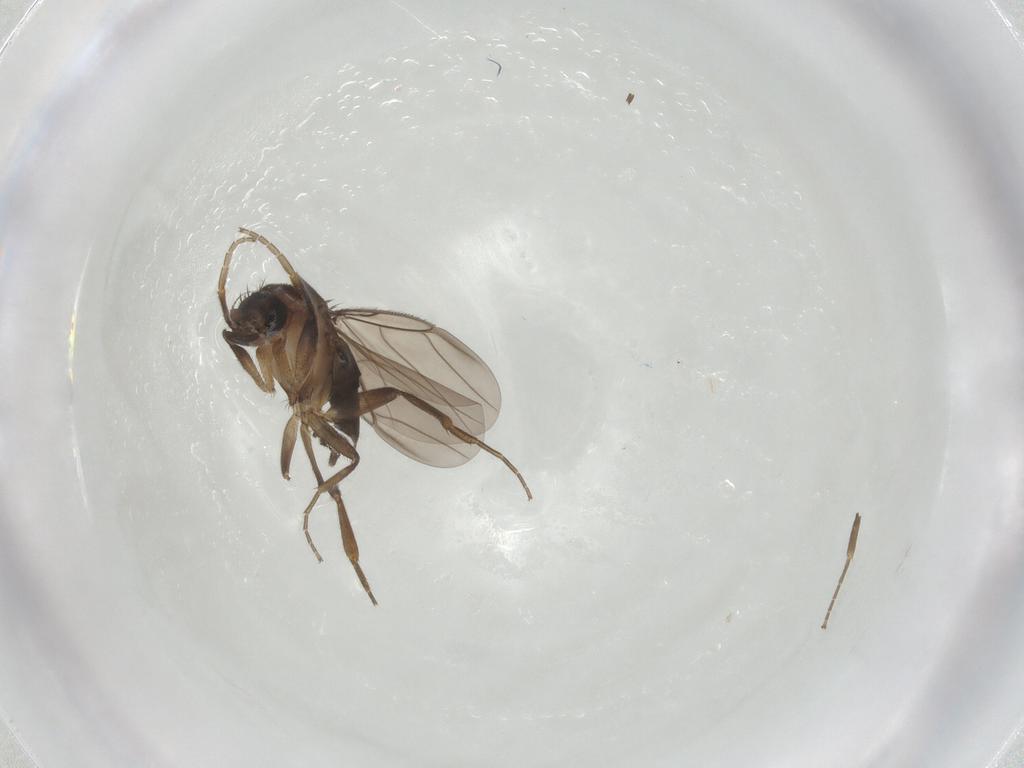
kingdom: Animalia
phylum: Arthropoda
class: Insecta
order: Diptera
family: Phoridae
